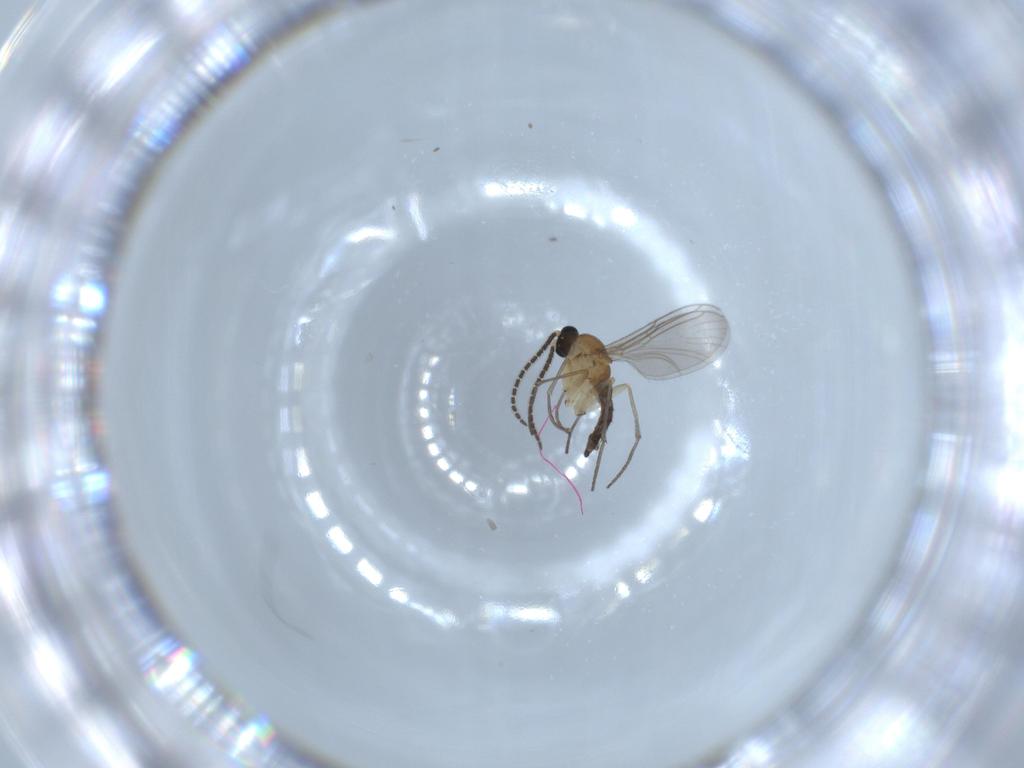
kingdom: Animalia
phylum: Arthropoda
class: Insecta
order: Diptera
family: Sciaridae
